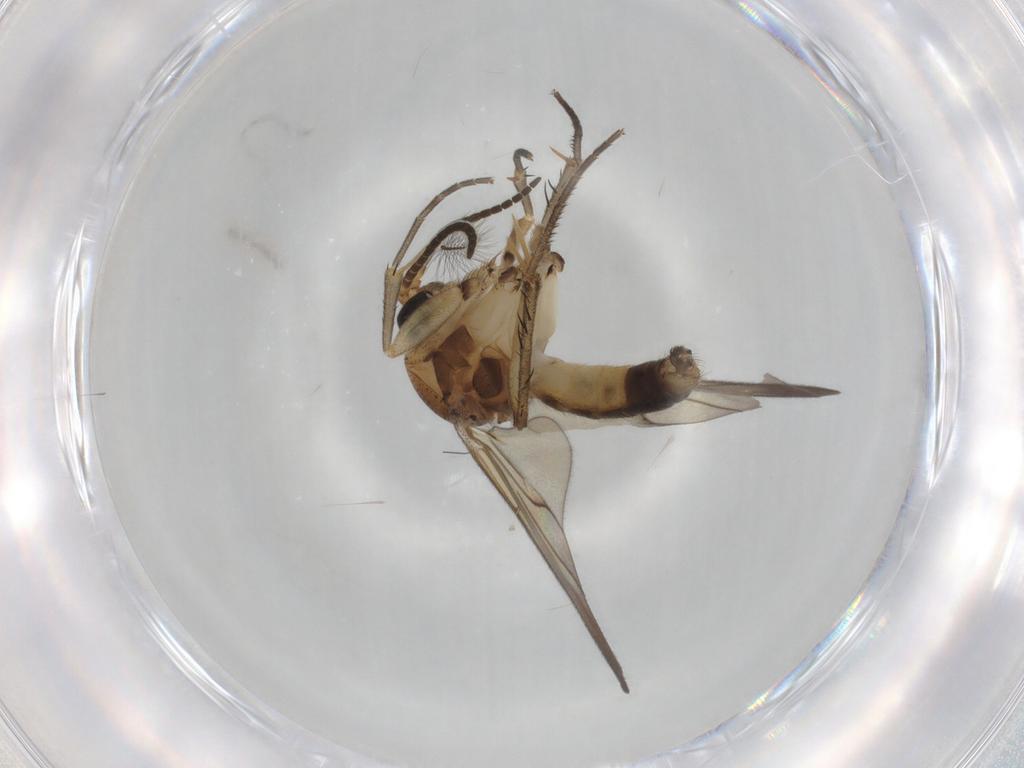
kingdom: Animalia
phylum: Arthropoda
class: Insecta
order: Diptera
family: Mycetophilidae
